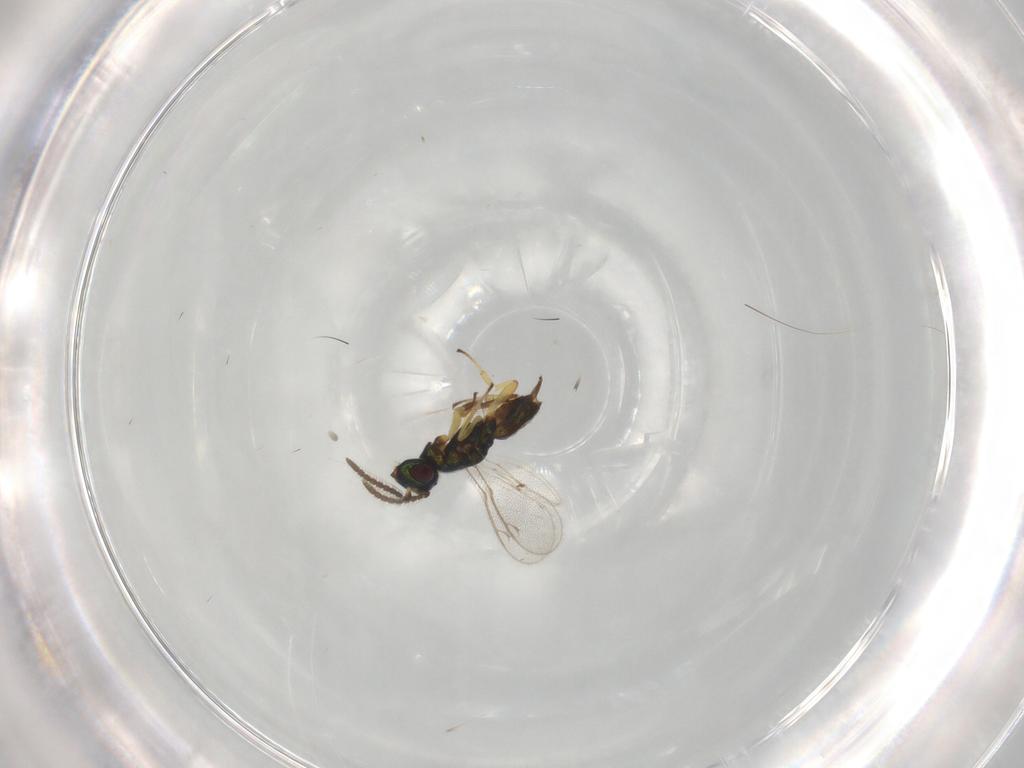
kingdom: Animalia
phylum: Arthropoda
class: Insecta
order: Hymenoptera
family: Eupelmidae
